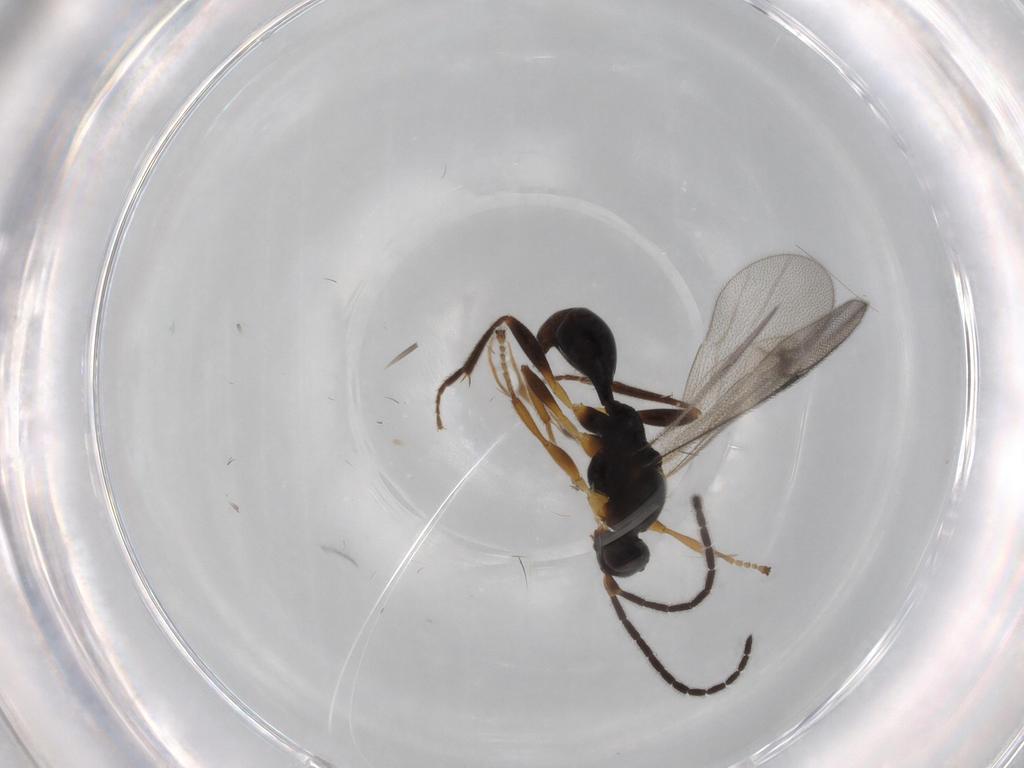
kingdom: Animalia
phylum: Arthropoda
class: Insecta
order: Hymenoptera
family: Proctotrupidae
